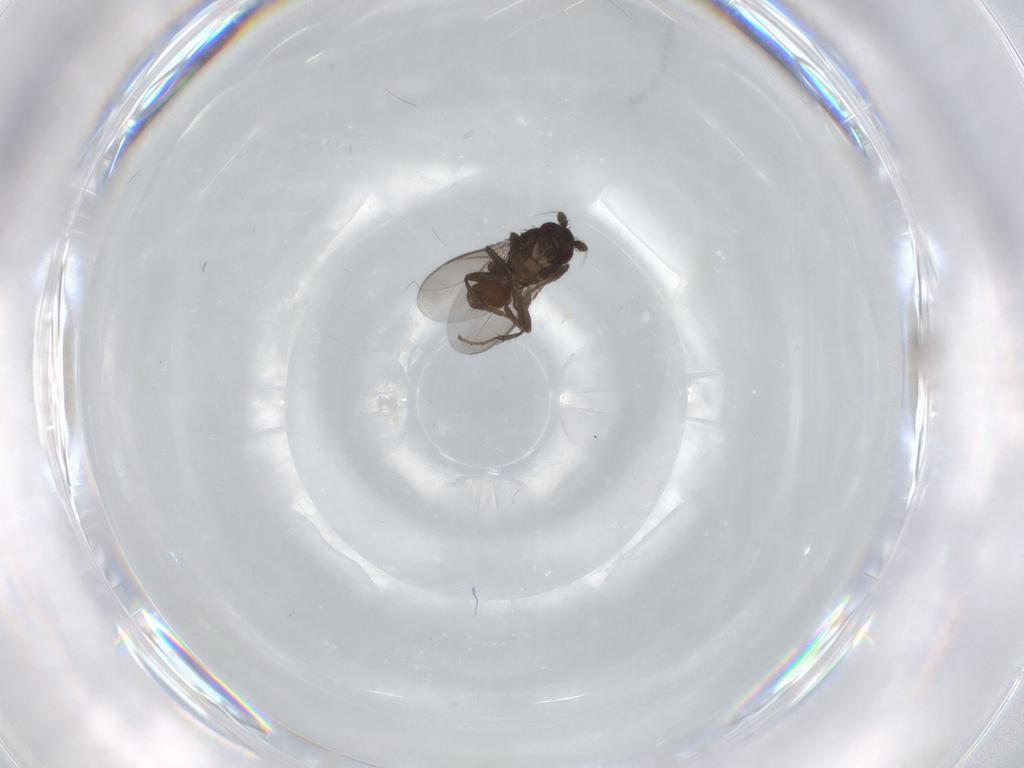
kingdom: Animalia
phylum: Arthropoda
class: Insecta
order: Diptera
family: Sphaeroceridae
